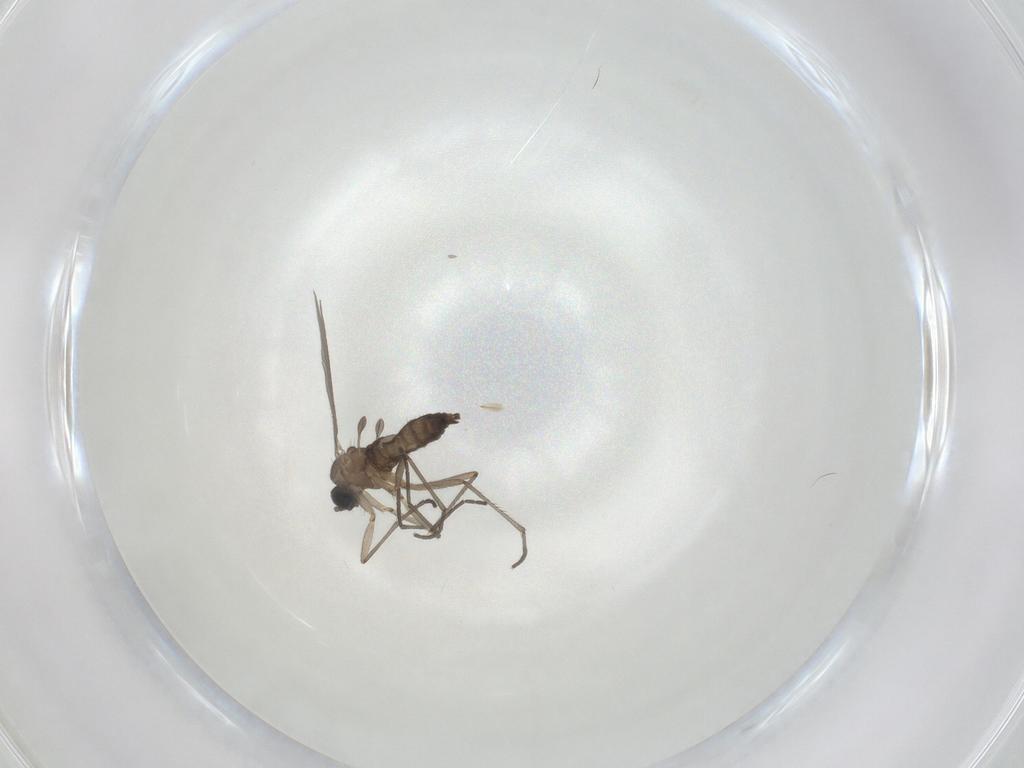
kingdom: Animalia
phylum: Arthropoda
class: Insecta
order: Diptera
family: Sciaridae
